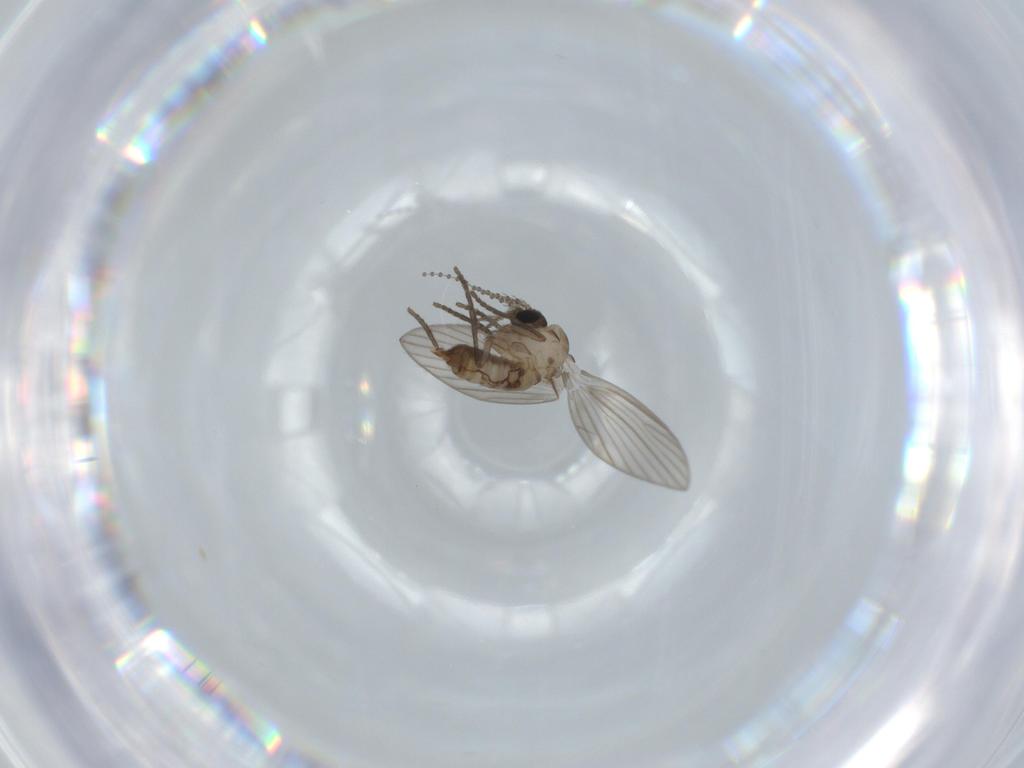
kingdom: Animalia
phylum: Arthropoda
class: Insecta
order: Diptera
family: Psychodidae
